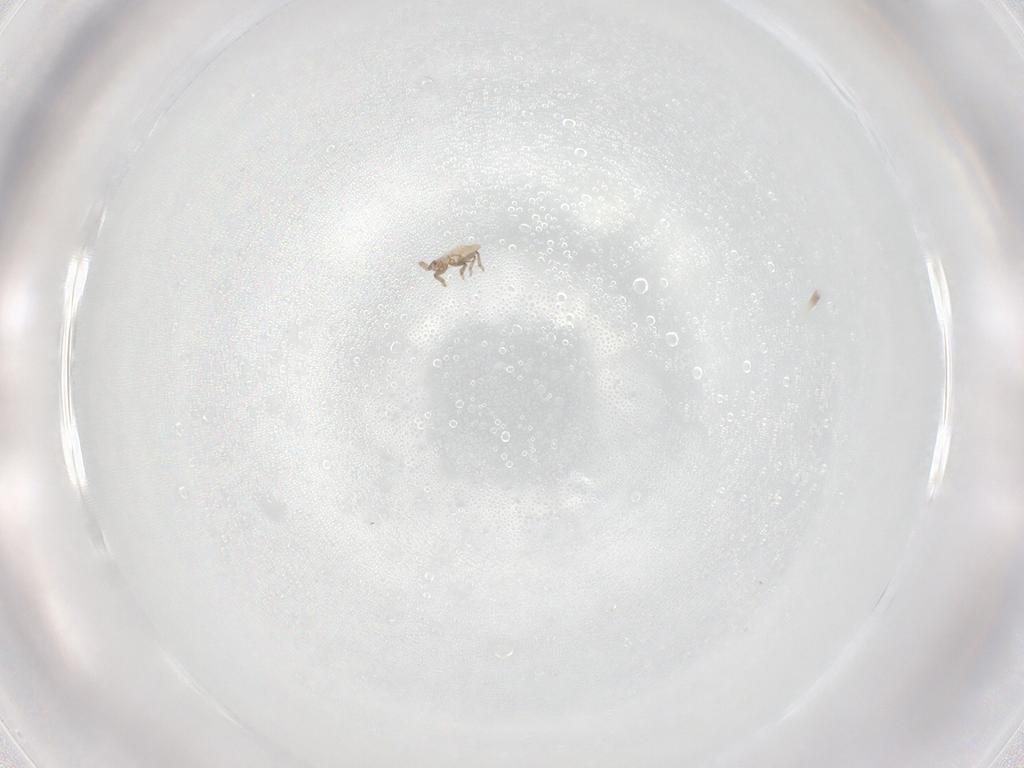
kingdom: Animalia
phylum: Arthropoda
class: Insecta
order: Hemiptera
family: Aphididae
